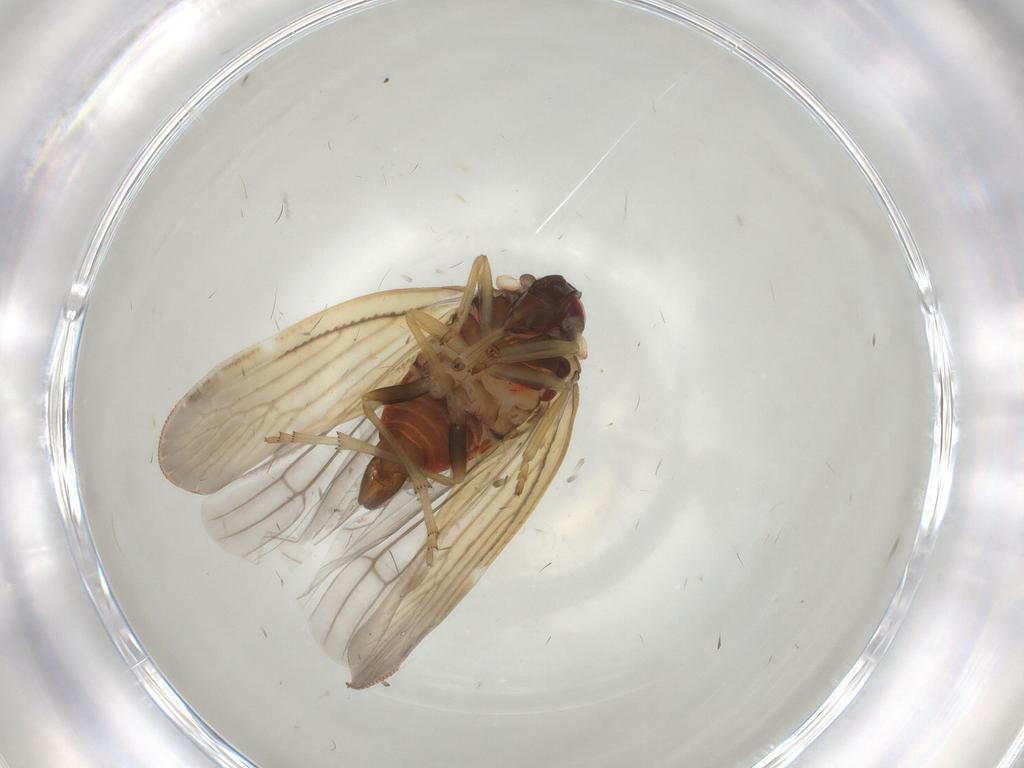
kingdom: Animalia
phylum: Arthropoda
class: Insecta
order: Hemiptera
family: Derbidae
